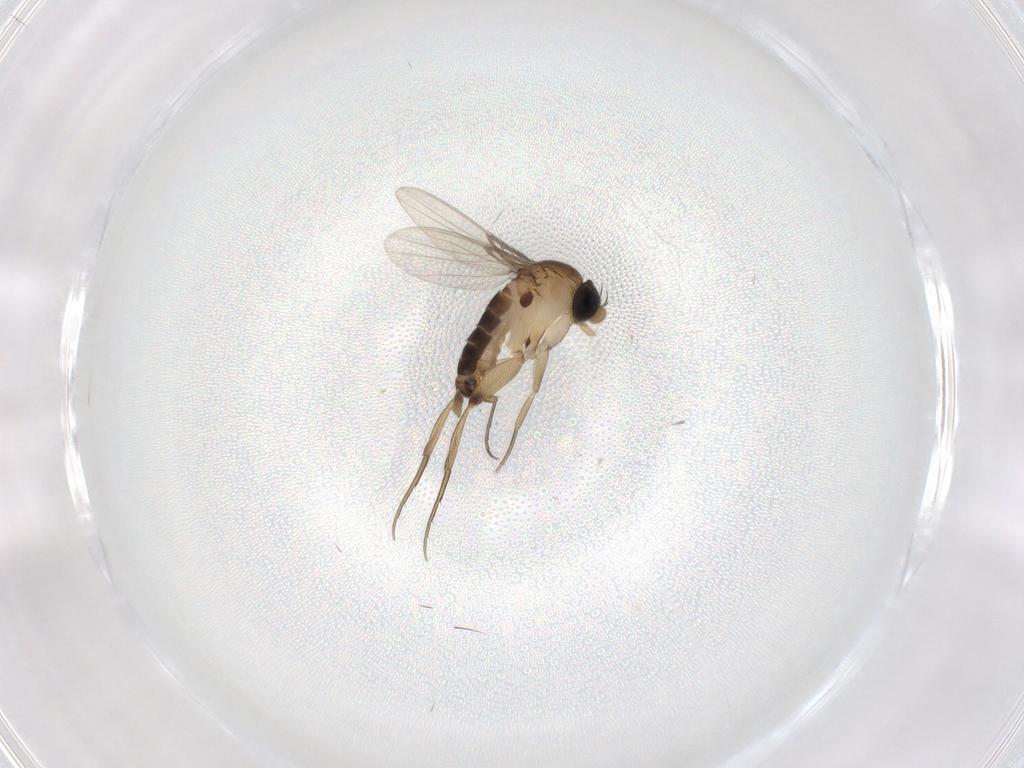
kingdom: Animalia
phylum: Arthropoda
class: Insecta
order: Diptera
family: Phoridae
